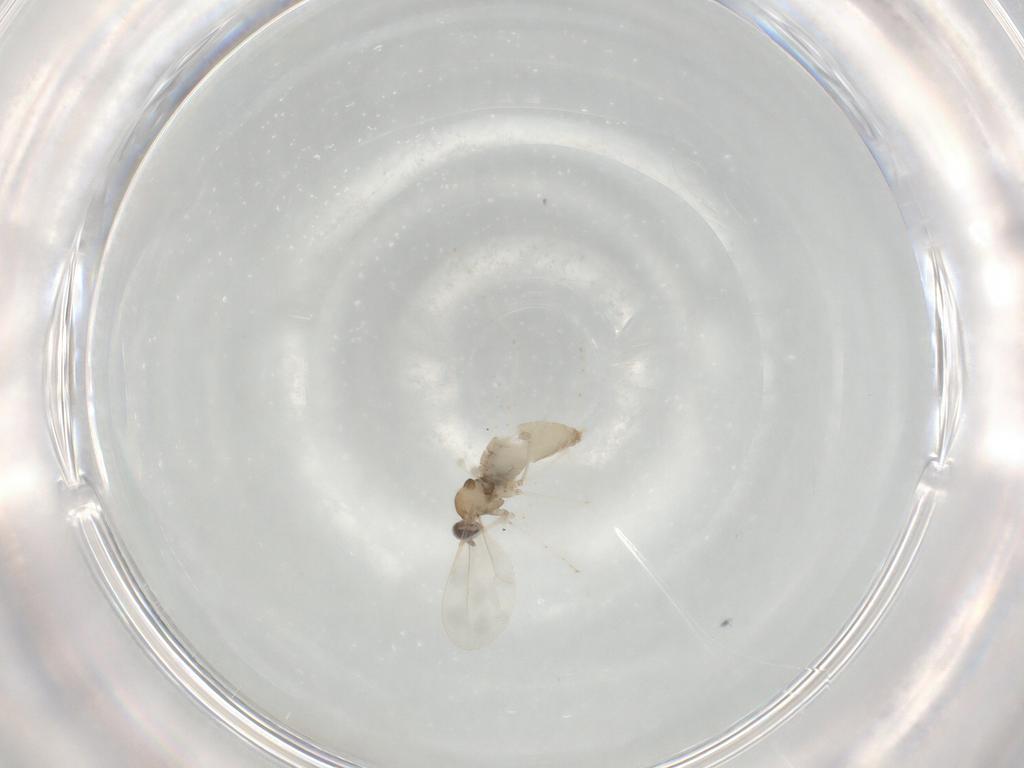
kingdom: Animalia
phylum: Arthropoda
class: Insecta
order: Diptera
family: Cecidomyiidae
